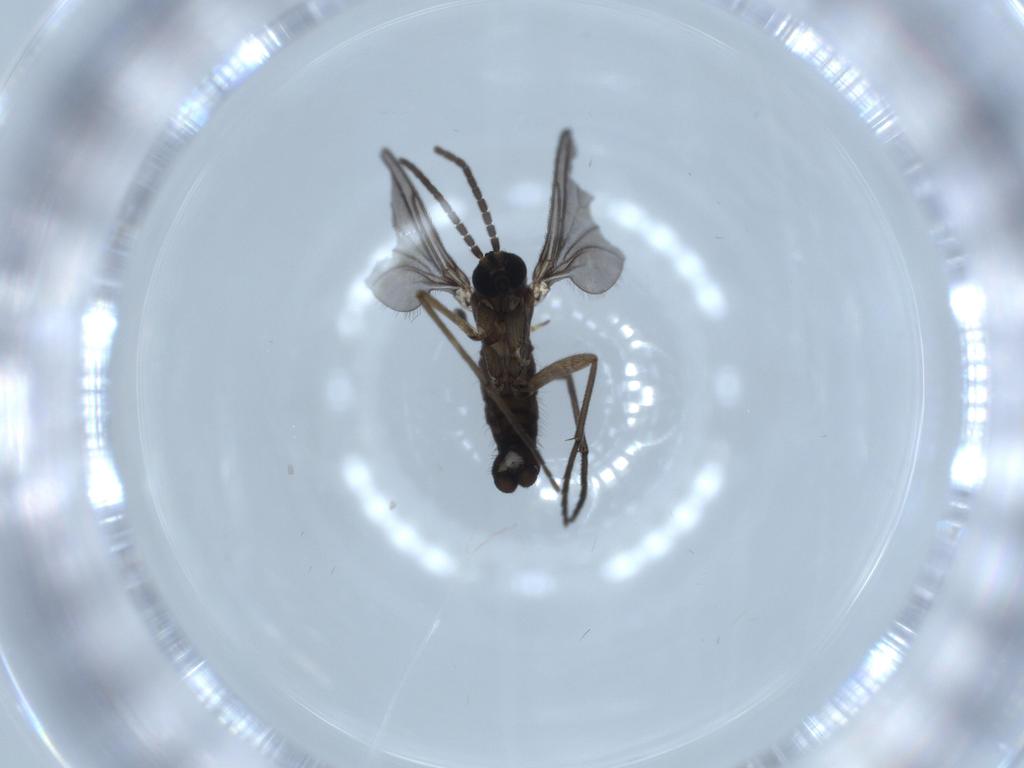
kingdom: Animalia
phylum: Arthropoda
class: Insecta
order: Diptera
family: Sciaridae
